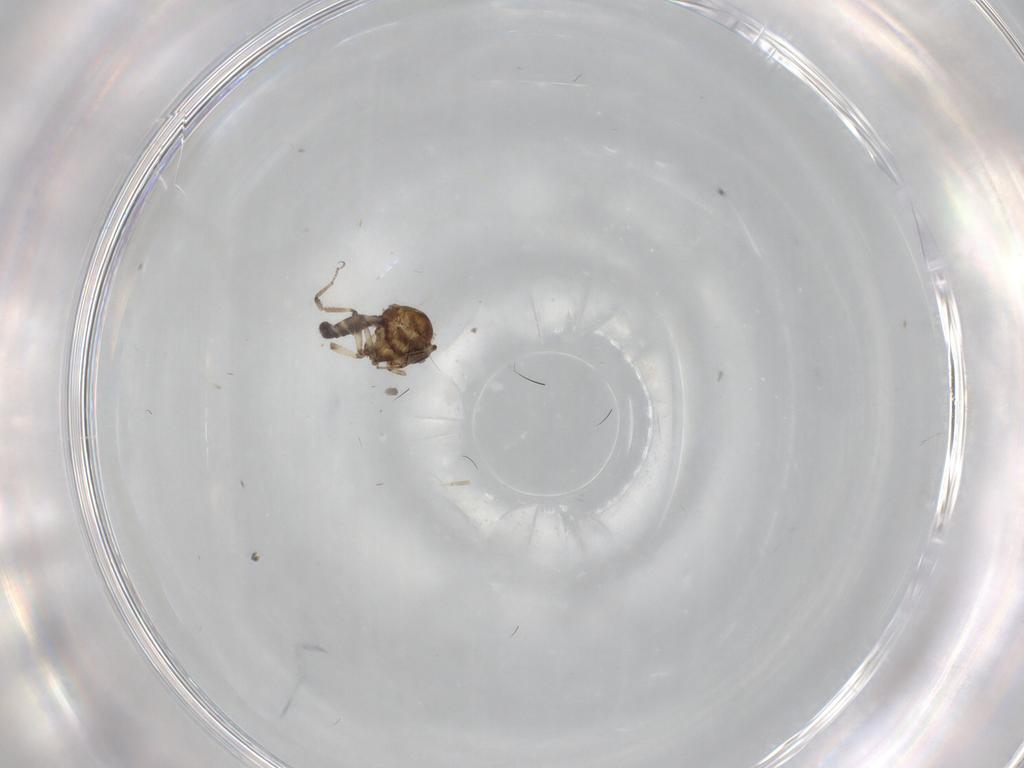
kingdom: Animalia
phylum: Arthropoda
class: Insecta
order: Diptera
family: Ceratopogonidae
